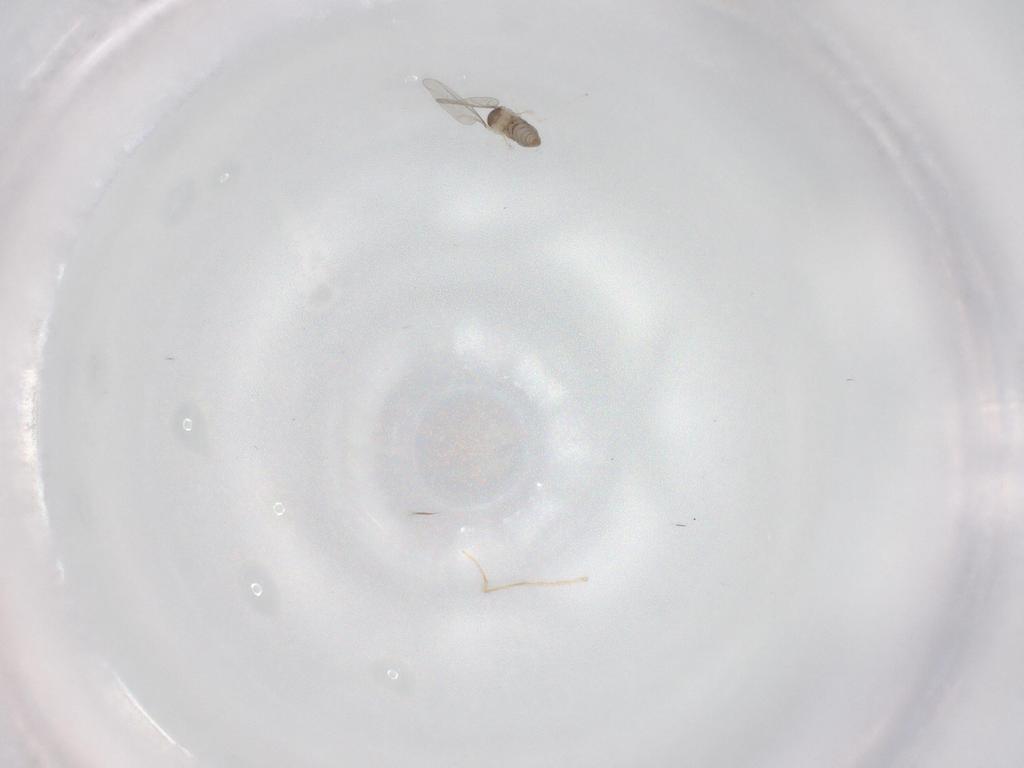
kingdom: Animalia
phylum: Arthropoda
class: Insecta
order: Diptera
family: Cecidomyiidae
